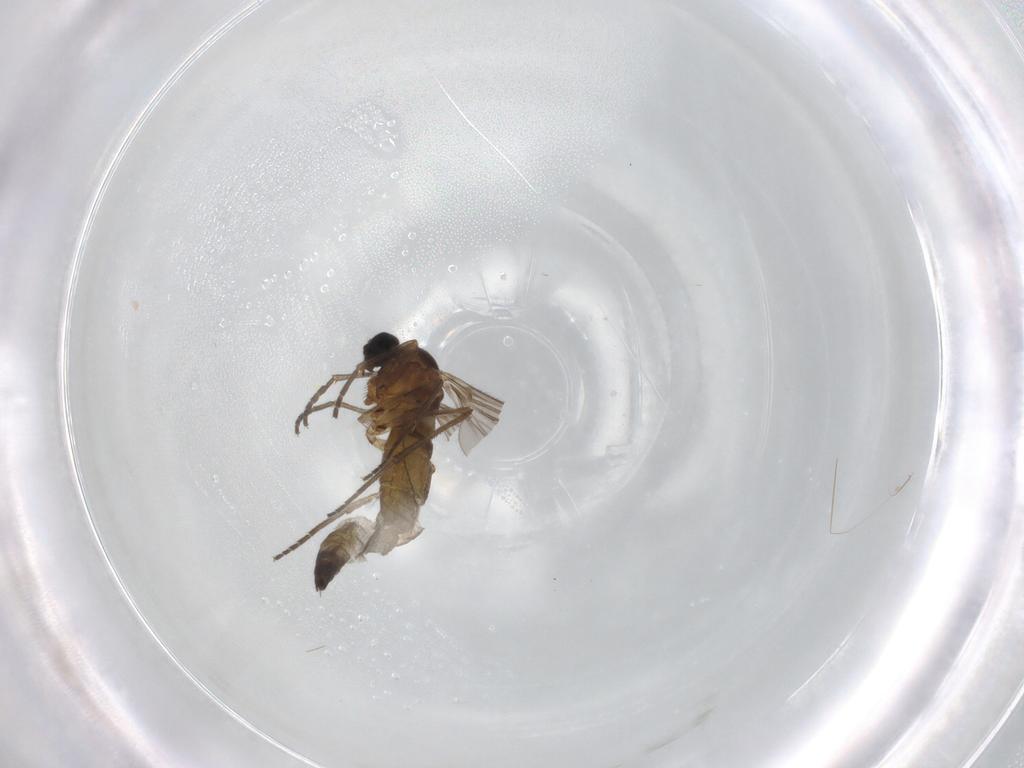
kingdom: Animalia
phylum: Arthropoda
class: Insecta
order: Diptera
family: Sciaridae
